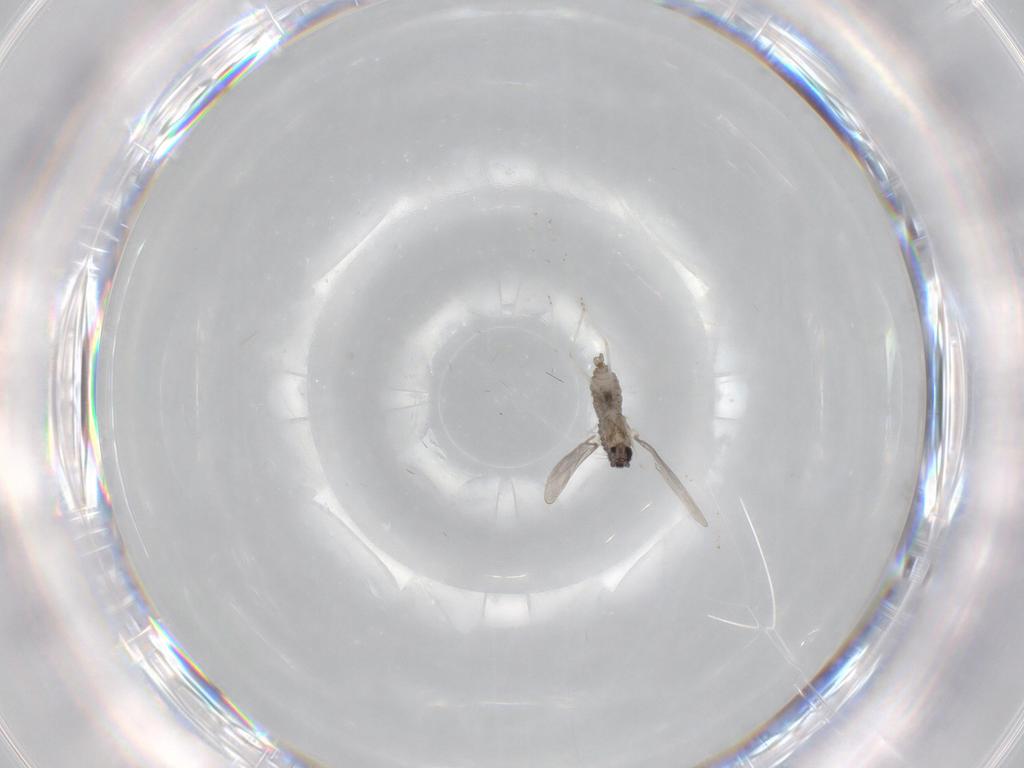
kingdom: Animalia
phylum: Arthropoda
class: Insecta
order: Diptera
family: Cecidomyiidae
